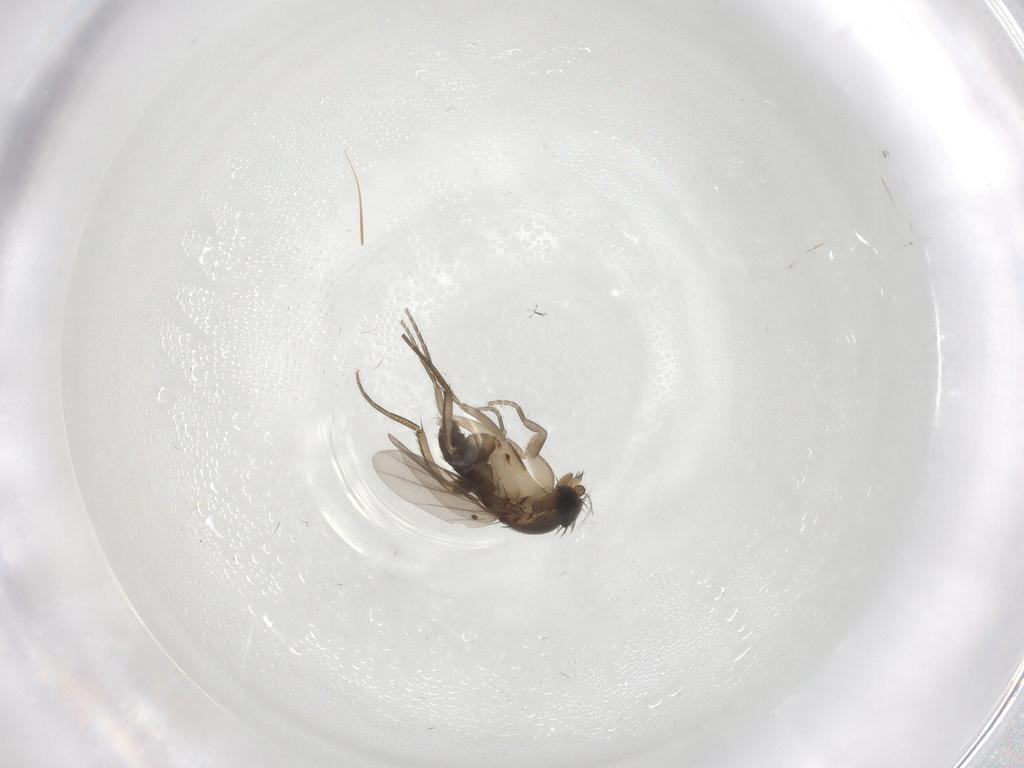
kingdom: Animalia
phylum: Arthropoda
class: Insecta
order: Diptera
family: Phoridae
